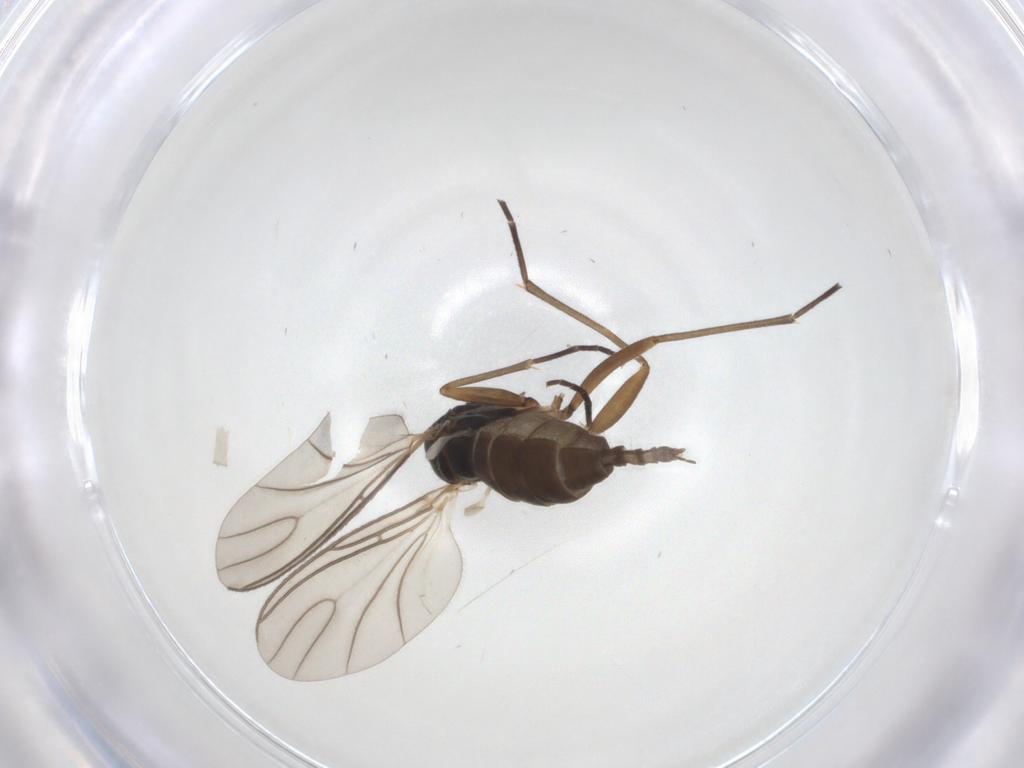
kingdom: Animalia
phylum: Arthropoda
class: Insecta
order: Diptera
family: Sciaridae
